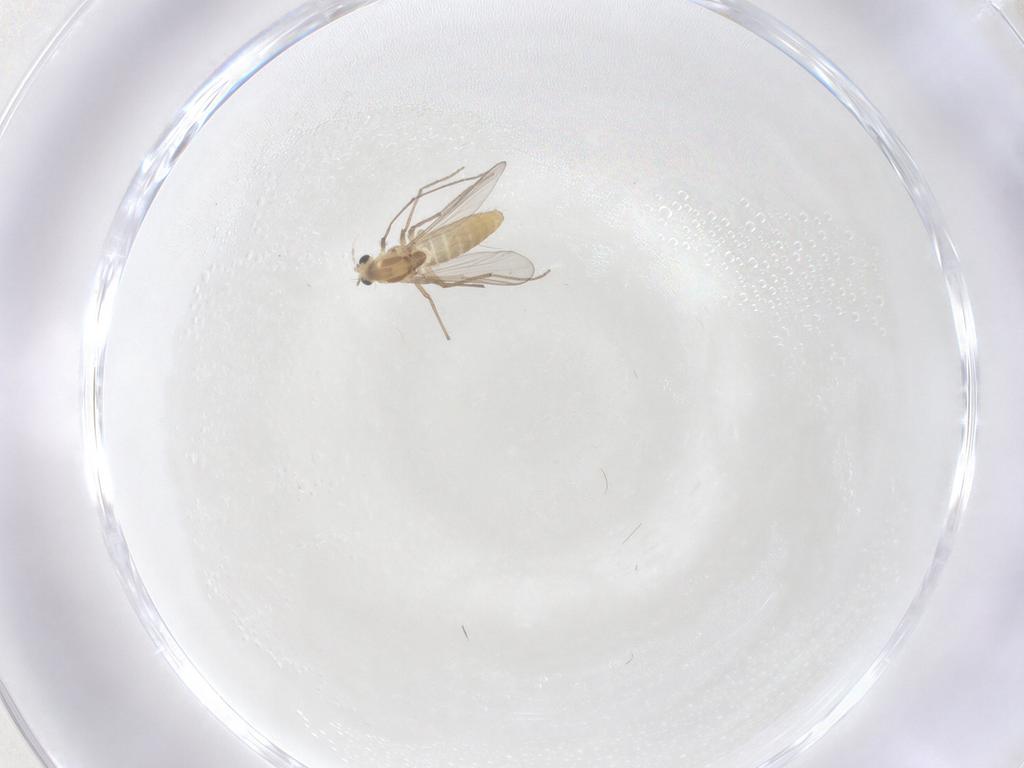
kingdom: Animalia
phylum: Arthropoda
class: Insecta
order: Diptera
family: Chironomidae
